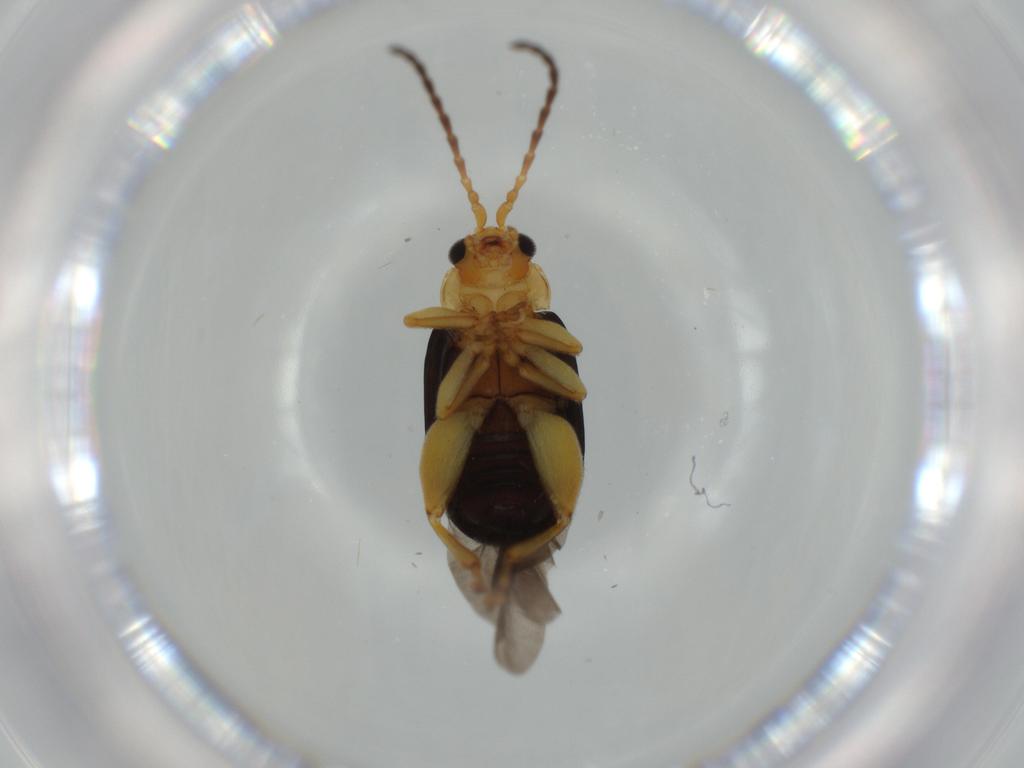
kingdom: Animalia
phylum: Arthropoda
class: Insecta
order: Coleoptera
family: Chrysomelidae
